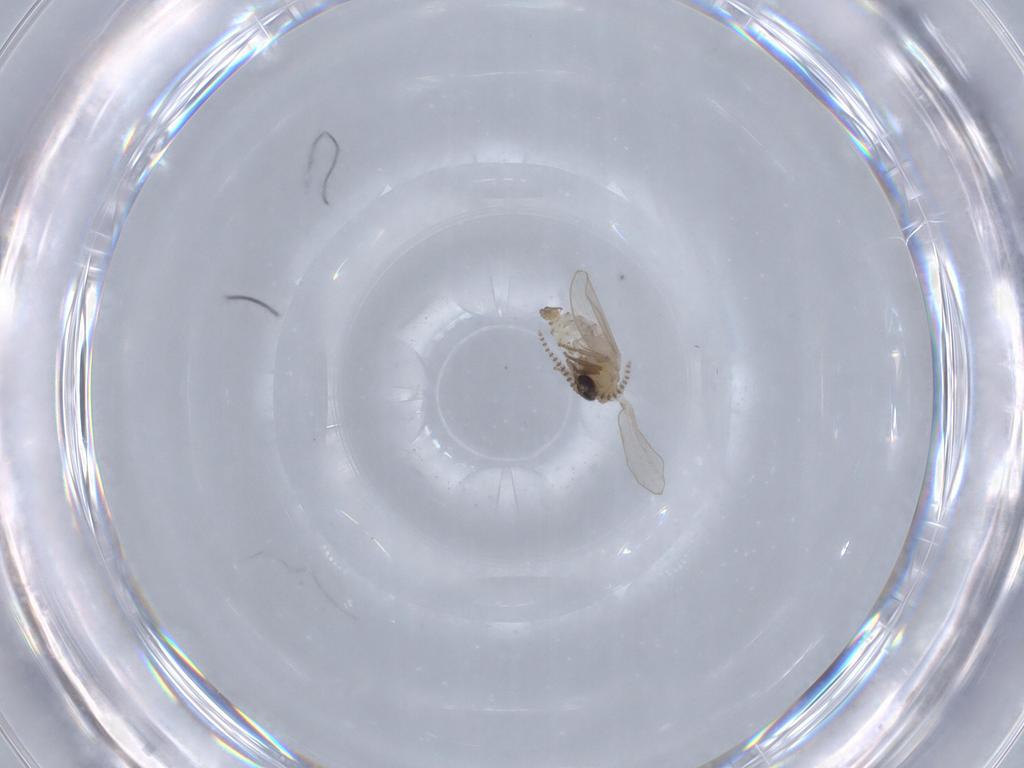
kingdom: Animalia
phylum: Arthropoda
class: Insecta
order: Diptera
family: Psychodidae
